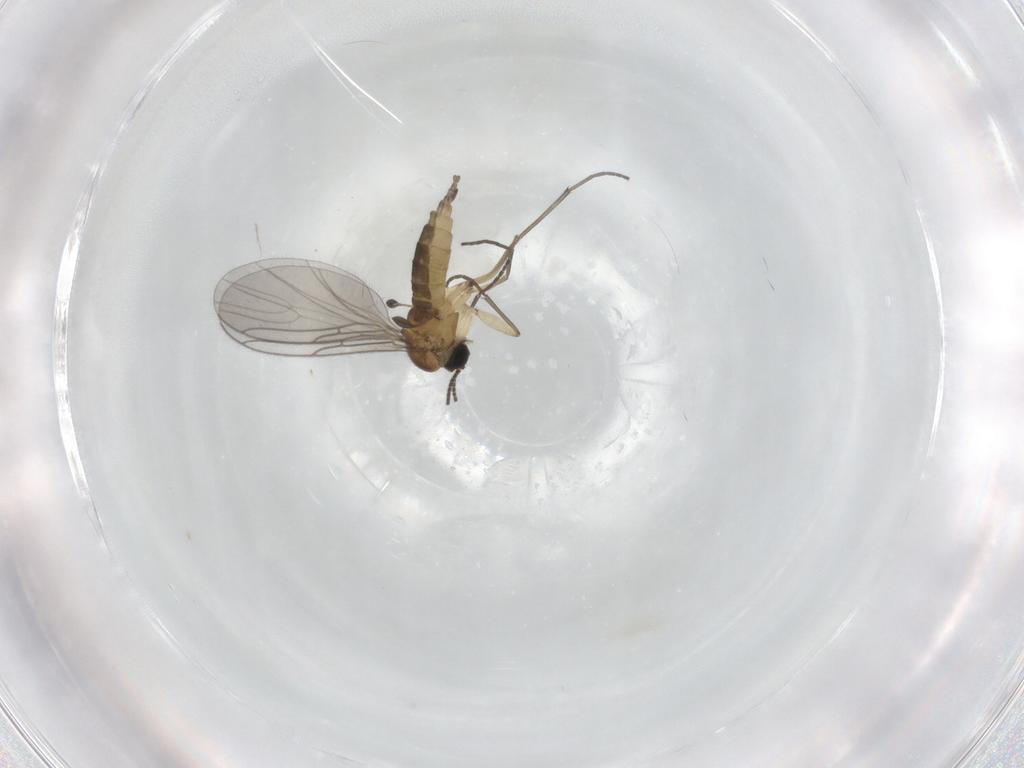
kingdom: Animalia
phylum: Arthropoda
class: Insecta
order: Diptera
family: Sciaridae
